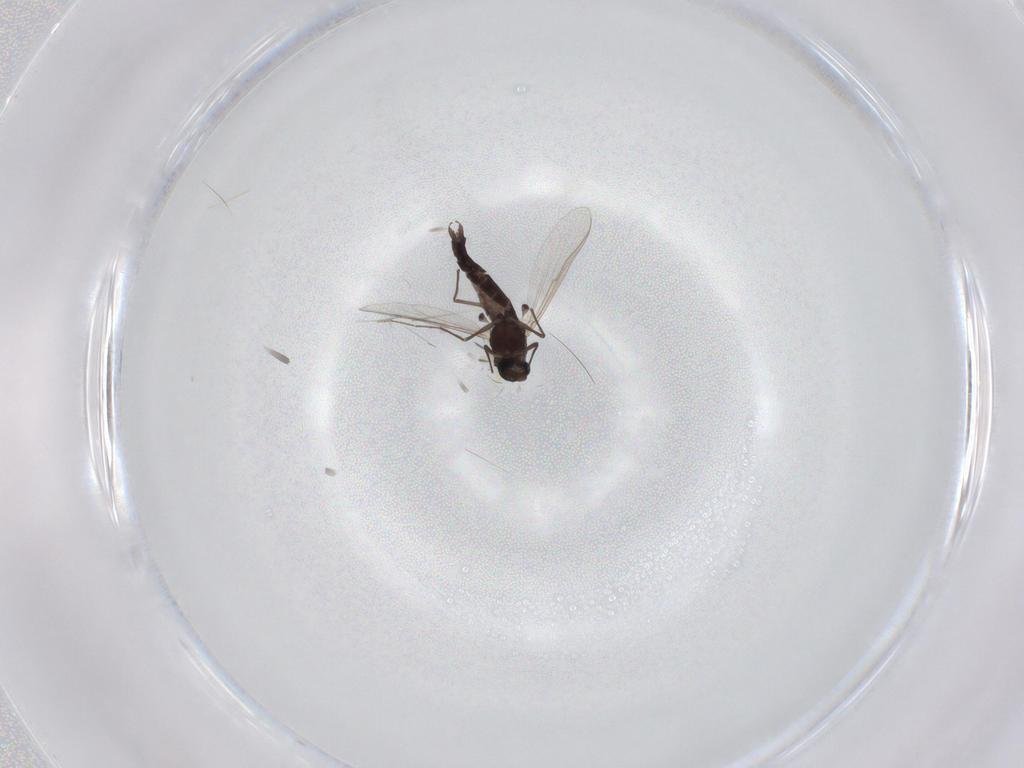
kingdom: Animalia
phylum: Arthropoda
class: Insecta
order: Diptera
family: Chironomidae
